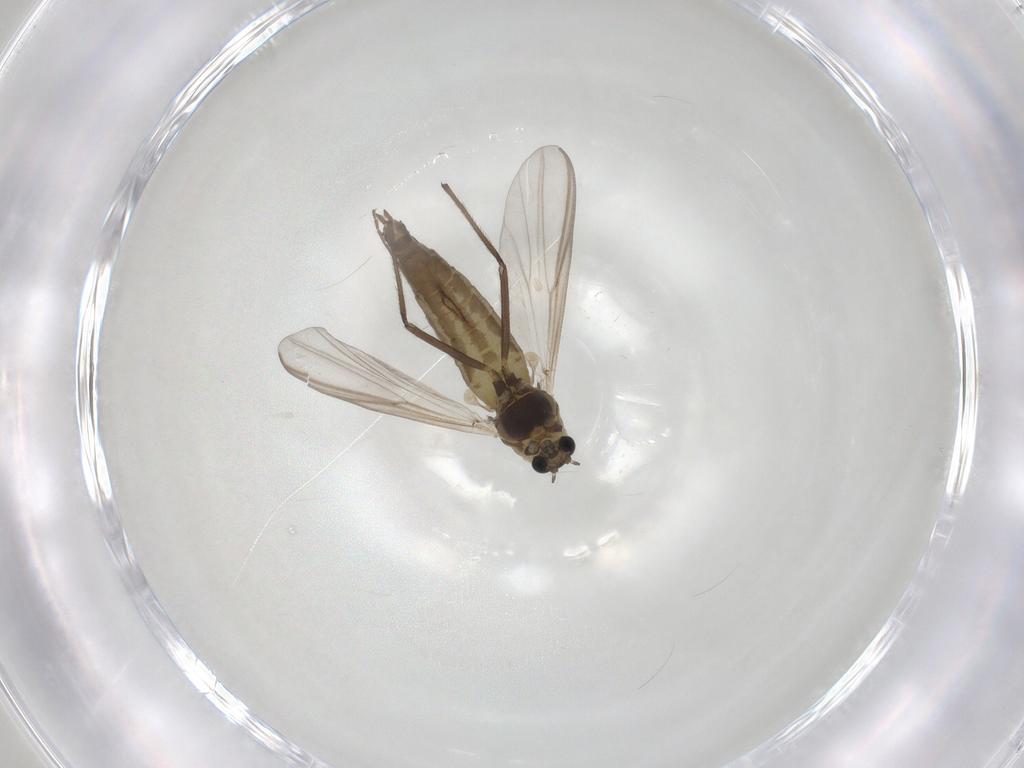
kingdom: Animalia
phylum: Arthropoda
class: Insecta
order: Diptera
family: Chironomidae
